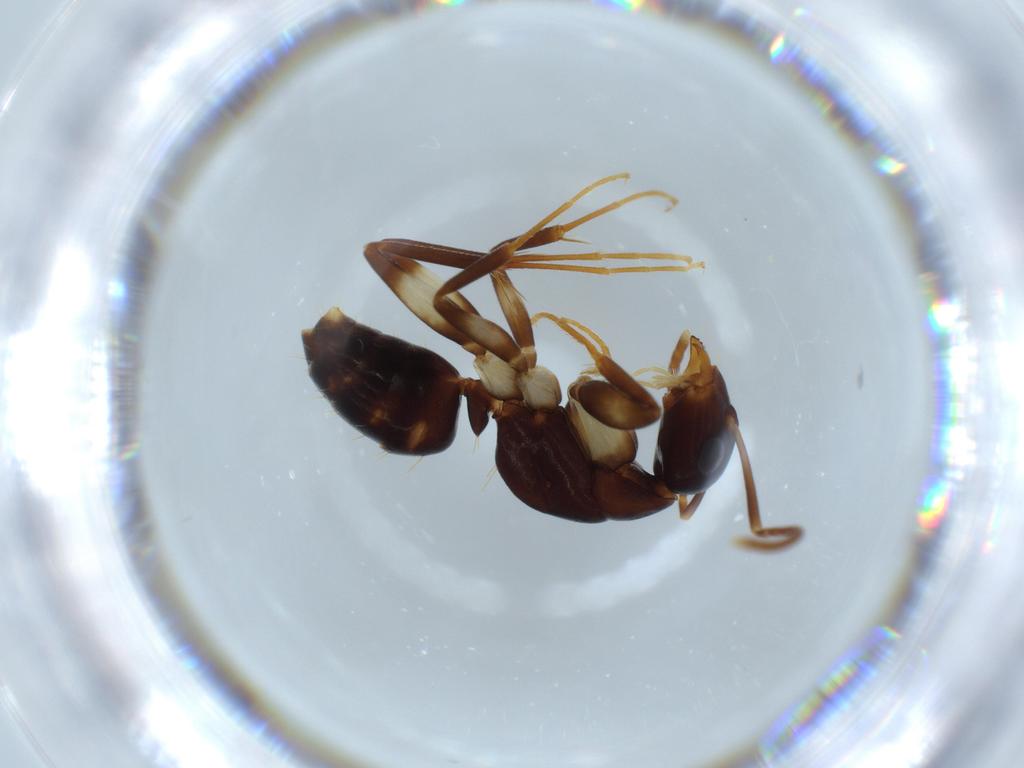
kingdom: Animalia
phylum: Arthropoda
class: Insecta
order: Hymenoptera
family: Formicidae
